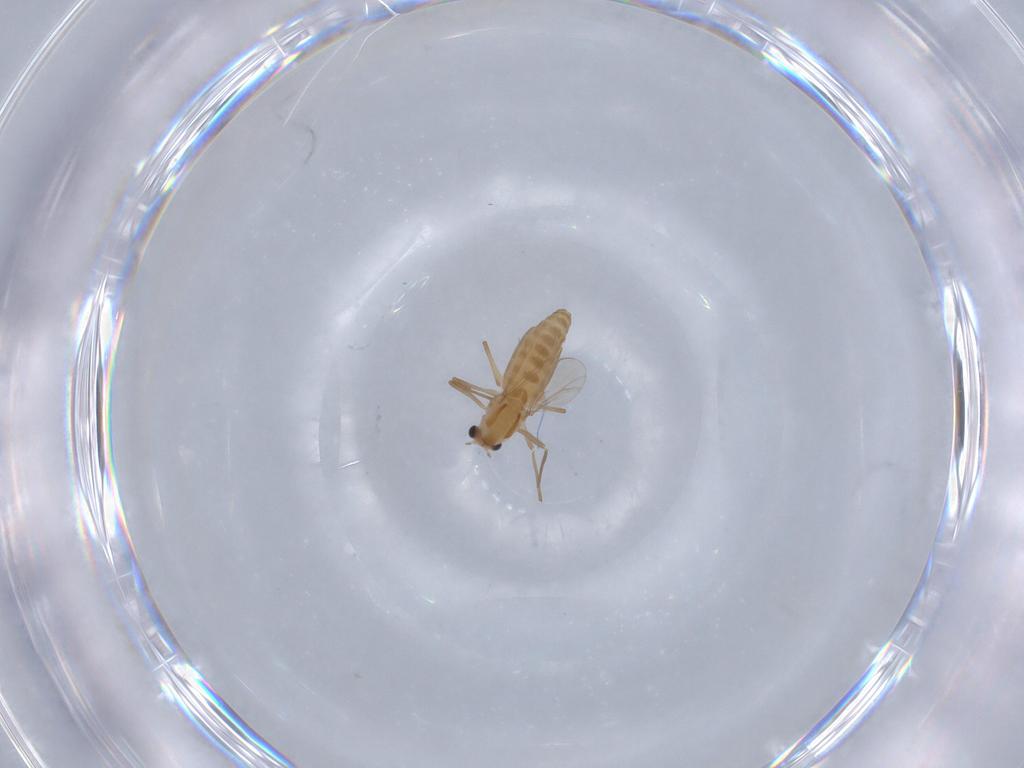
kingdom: Animalia
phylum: Arthropoda
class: Insecta
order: Diptera
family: Chironomidae
